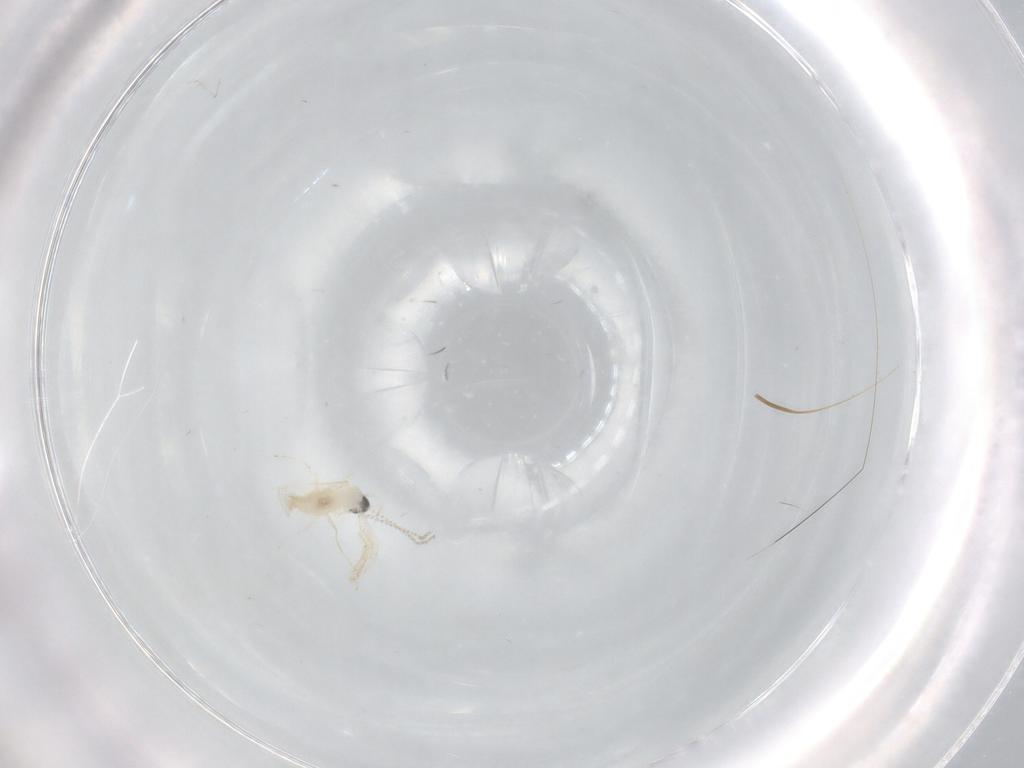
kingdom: Animalia
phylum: Arthropoda
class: Insecta
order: Diptera
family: Cecidomyiidae
